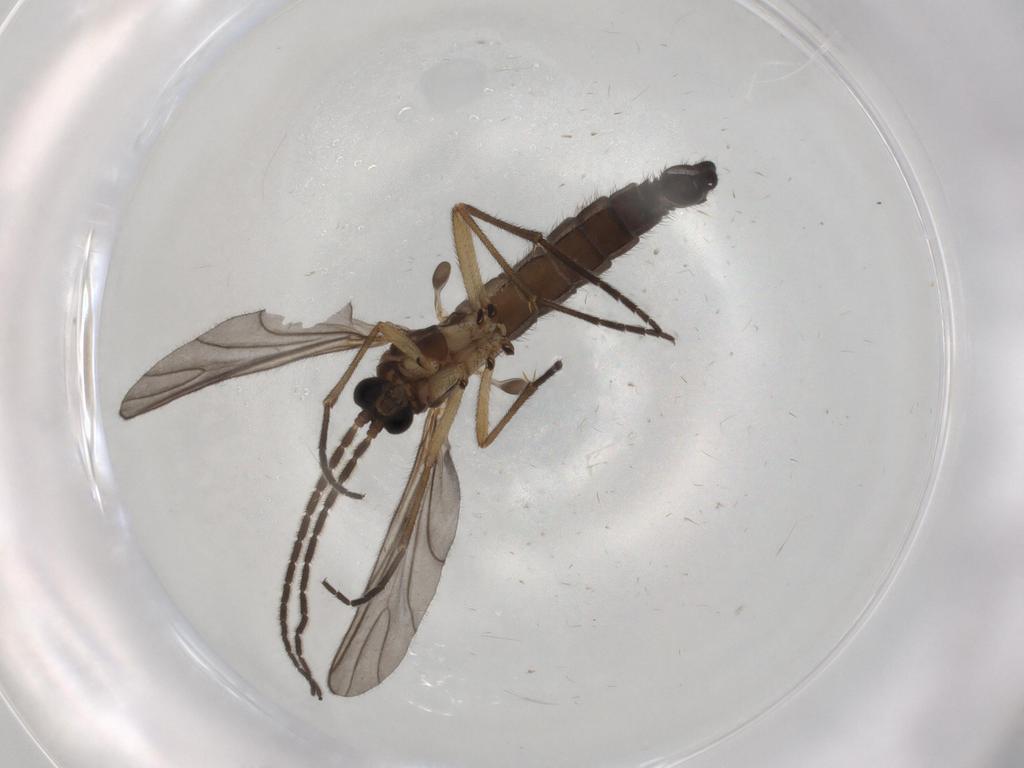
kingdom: Animalia
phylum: Arthropoda
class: Insecta
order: Diptera
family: Sciaridae
